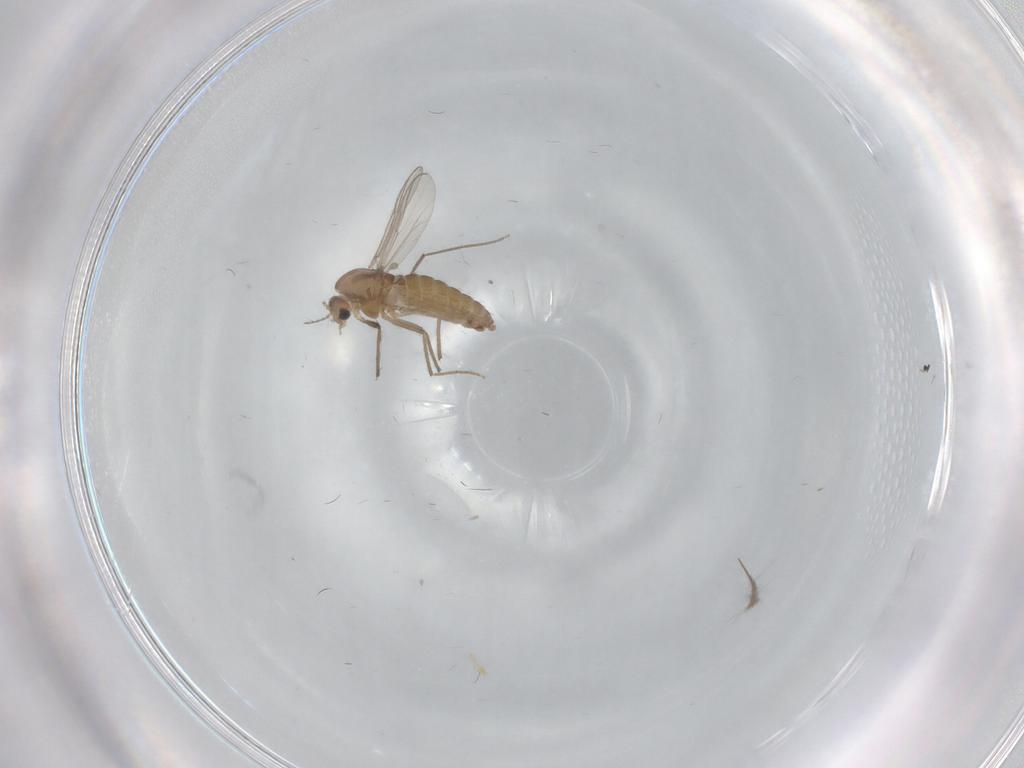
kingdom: Animalia
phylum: Arthropoda
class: Insecta
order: Diptera
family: Chironomidae
